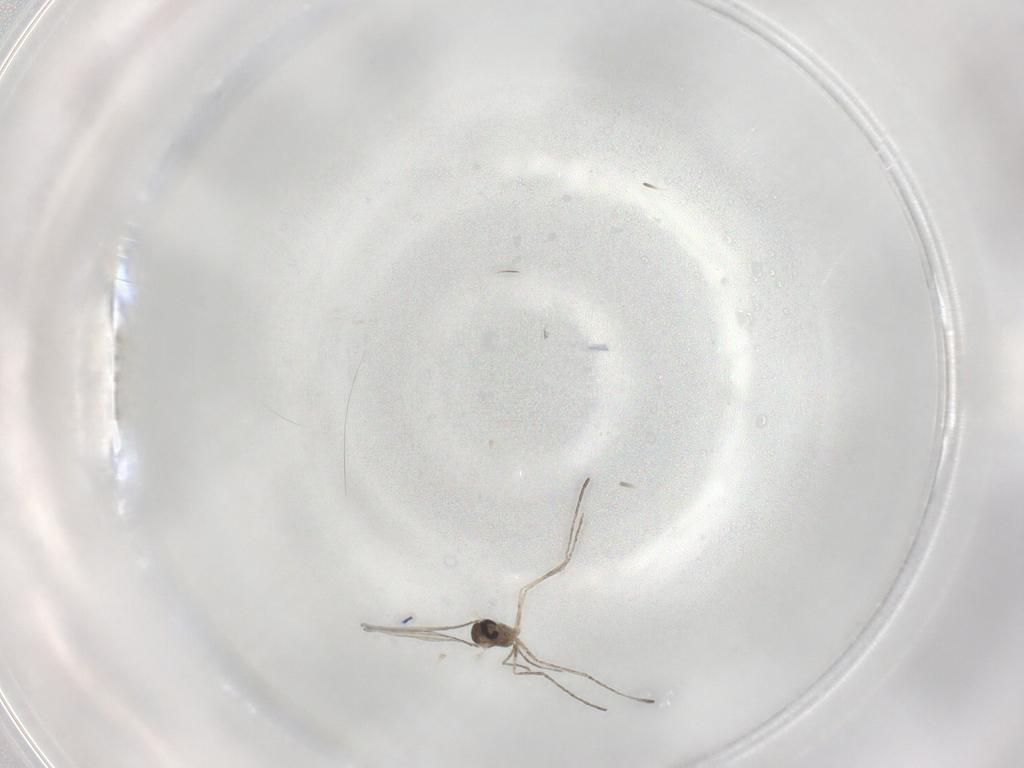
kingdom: Animalia
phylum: Arthropoda
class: Insecta
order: Diptera
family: Cecidomyiidae
